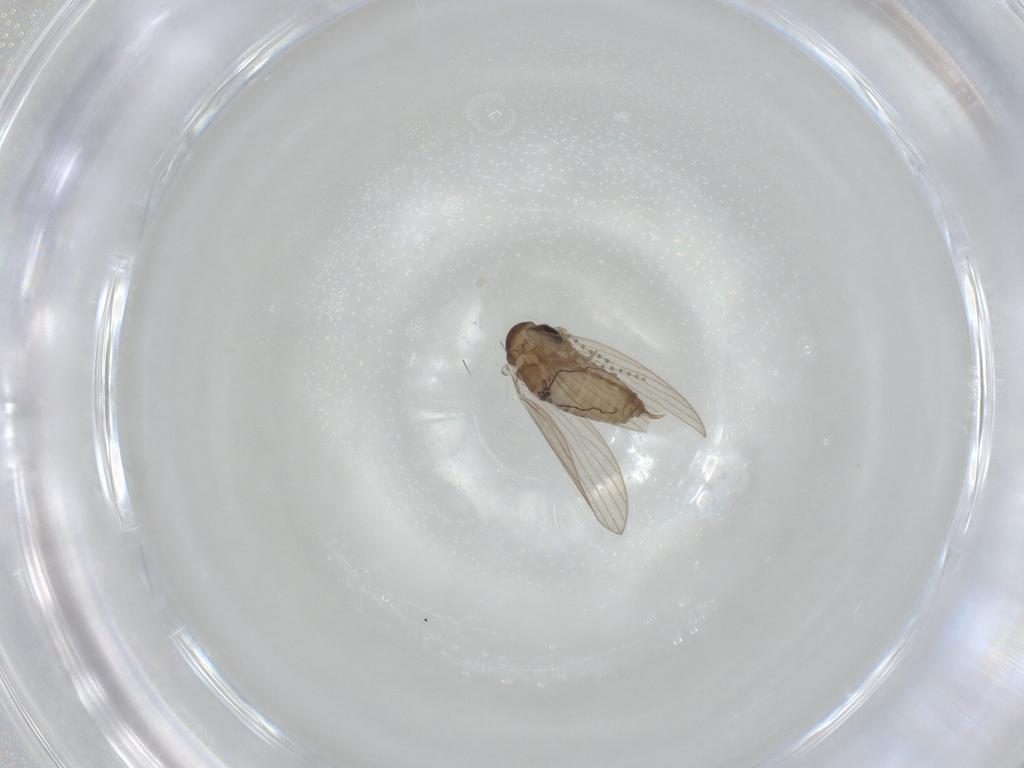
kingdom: Animalia
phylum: Arthropoda
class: Insecta
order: Diptera
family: Psychodidae
